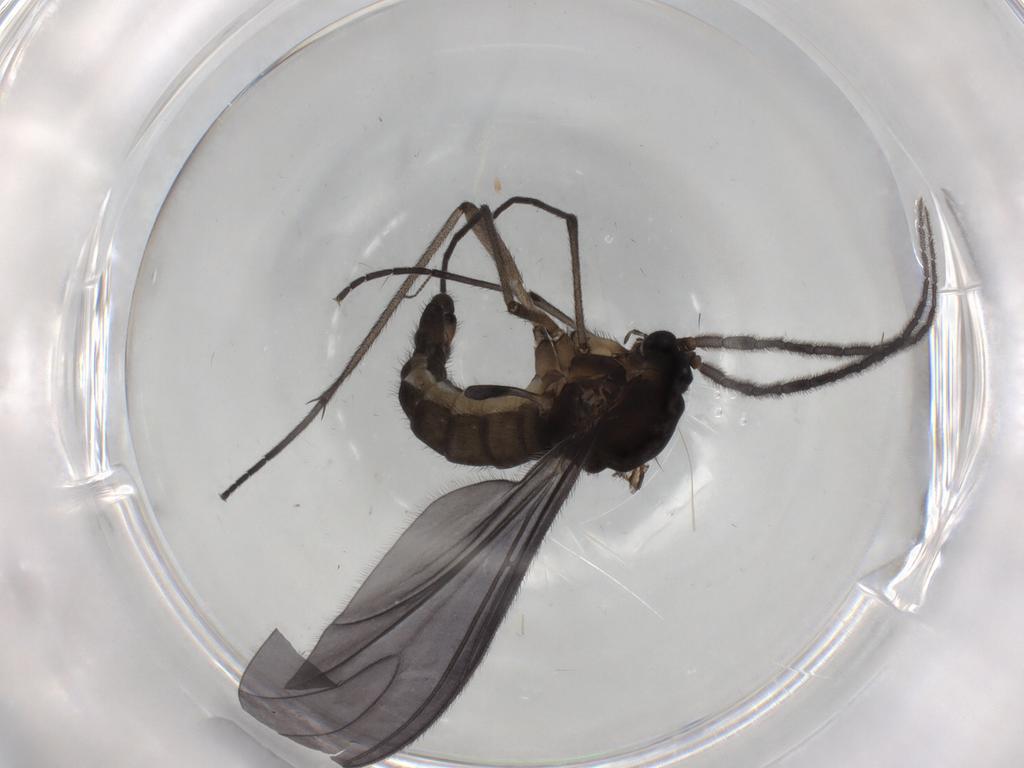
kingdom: Animalia
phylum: Arthropoda
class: Insecta
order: Diptera
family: Sciaridae
